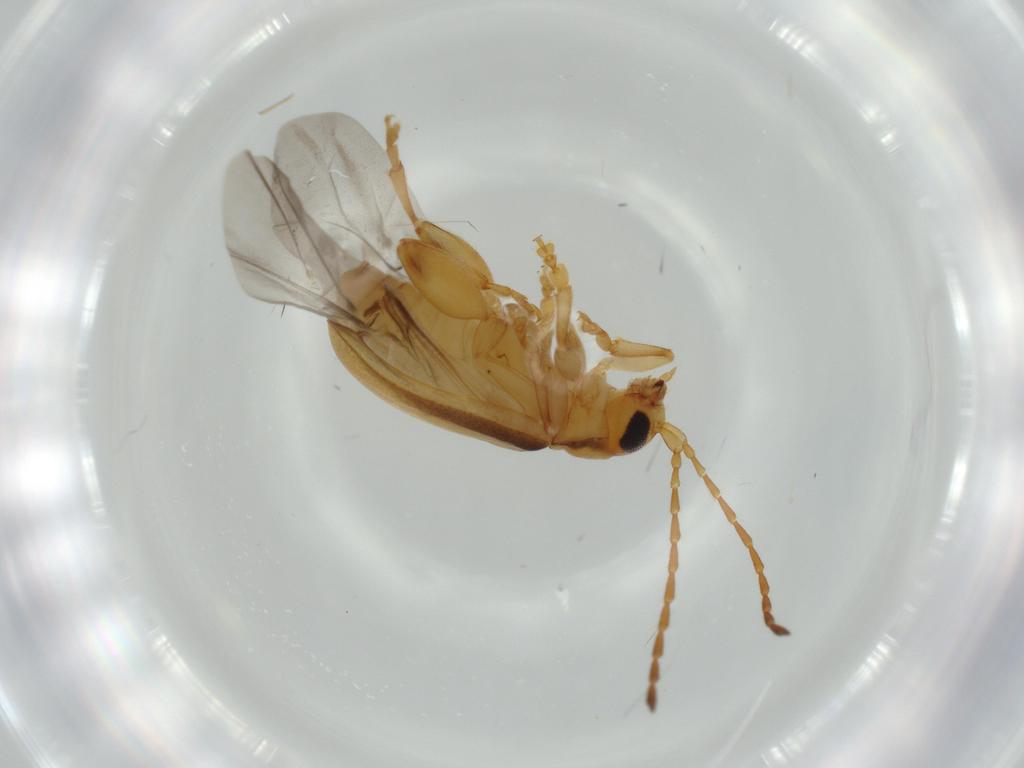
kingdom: Animalia
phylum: Arthropoda
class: Insecta
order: Coleoptera
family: Chrysomelidae
